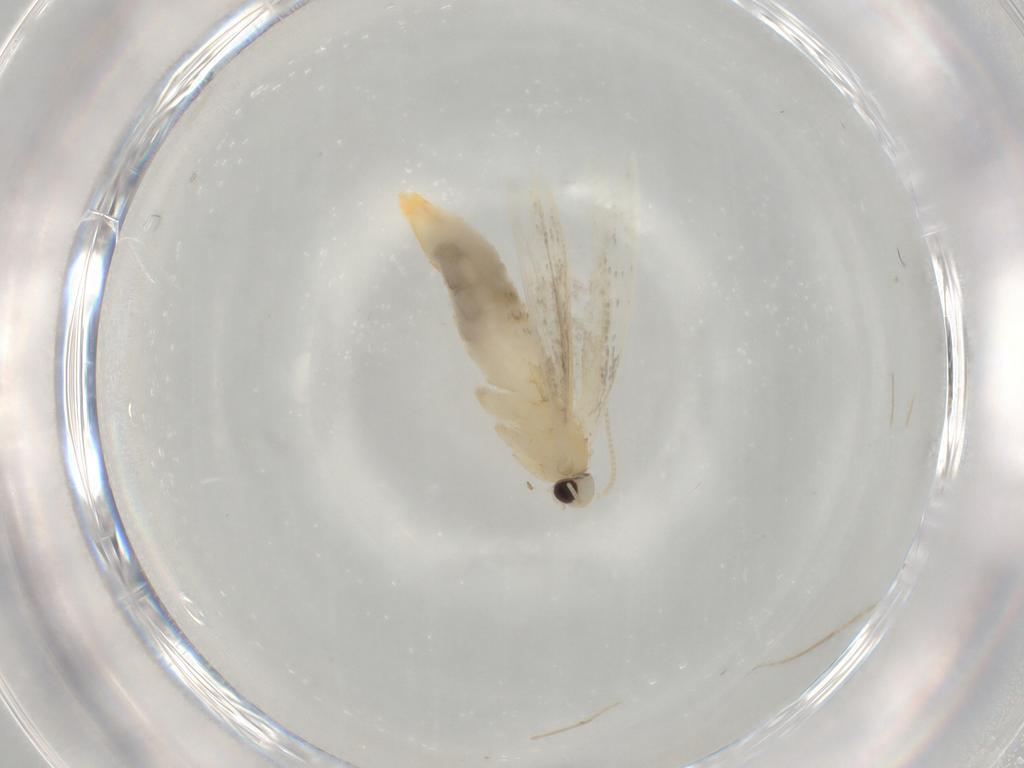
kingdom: Animalia
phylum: Arthropoda
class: Insecta
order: Lepidoptera
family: Tineidae
